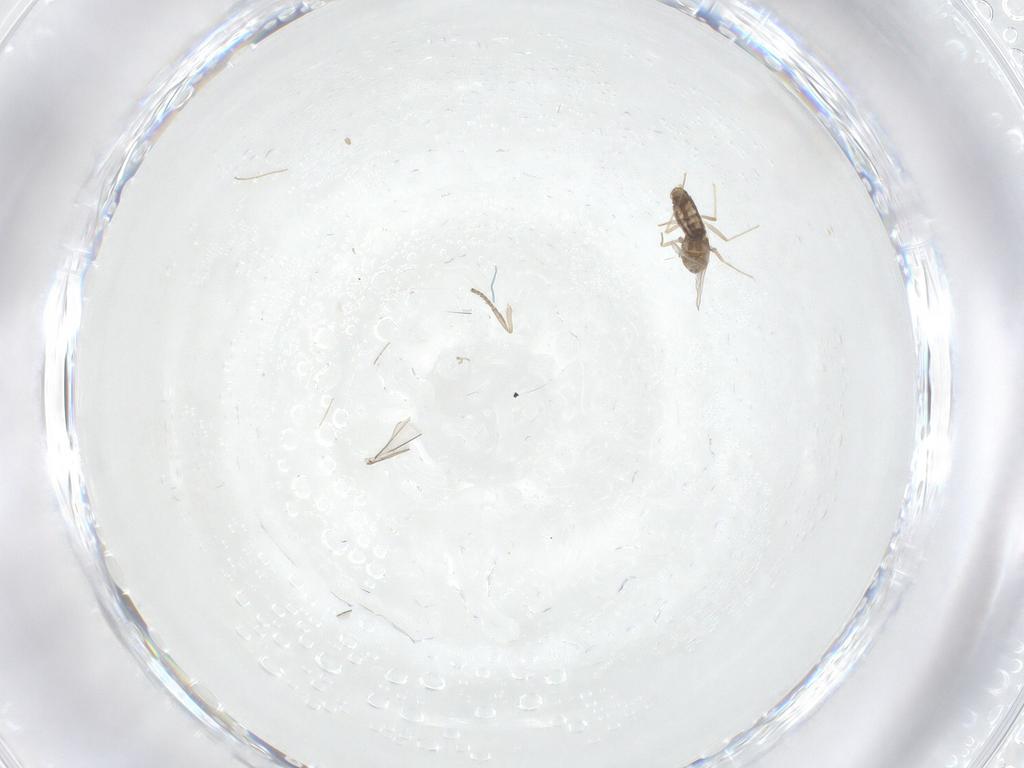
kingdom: Animalia
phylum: Arthropoda
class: Insecta
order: Diptera
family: Chironomidae
